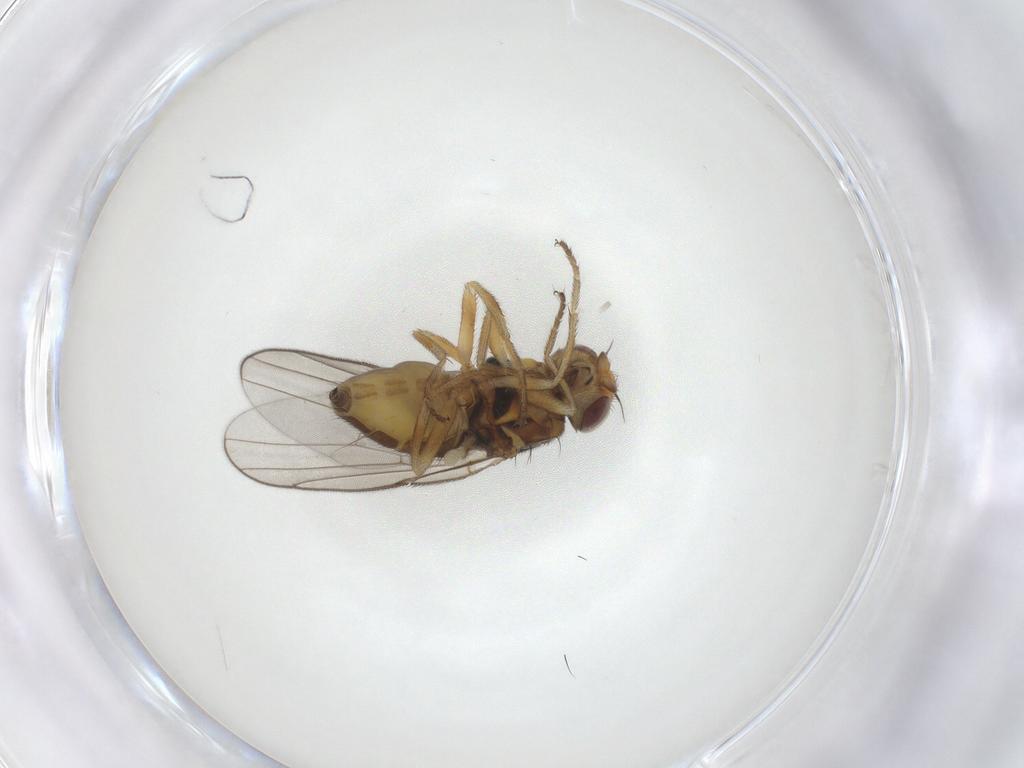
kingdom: Animalia
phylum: Arthropoda
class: Insecta
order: Diptera
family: Chloropidae
